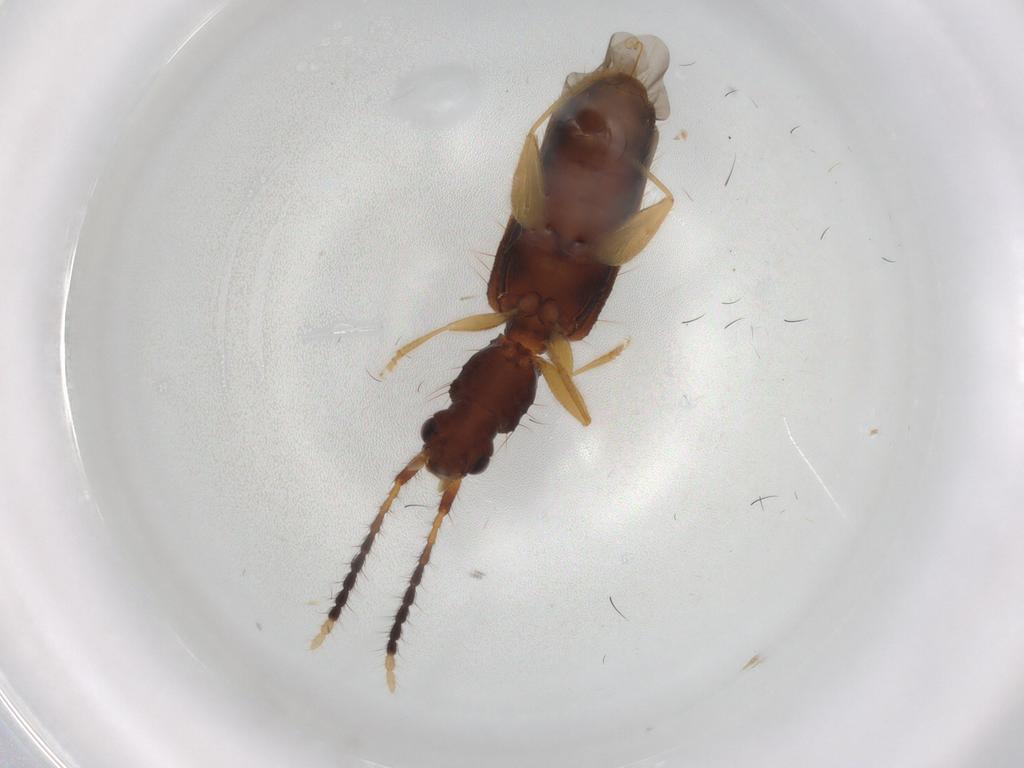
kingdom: Animalia
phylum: Arthropoda
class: Insecta
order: Coleoptera
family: Silvanidae
